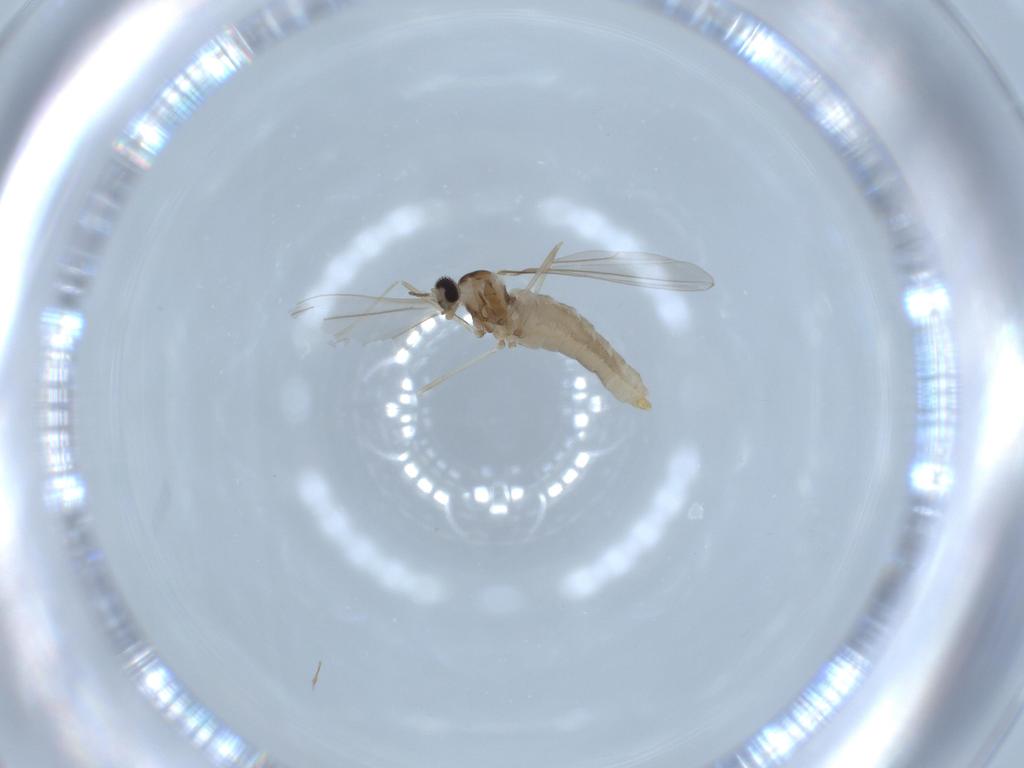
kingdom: Animalia
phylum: Arthropoda
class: Insecta
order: Diptera
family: Cecidomyiidae
